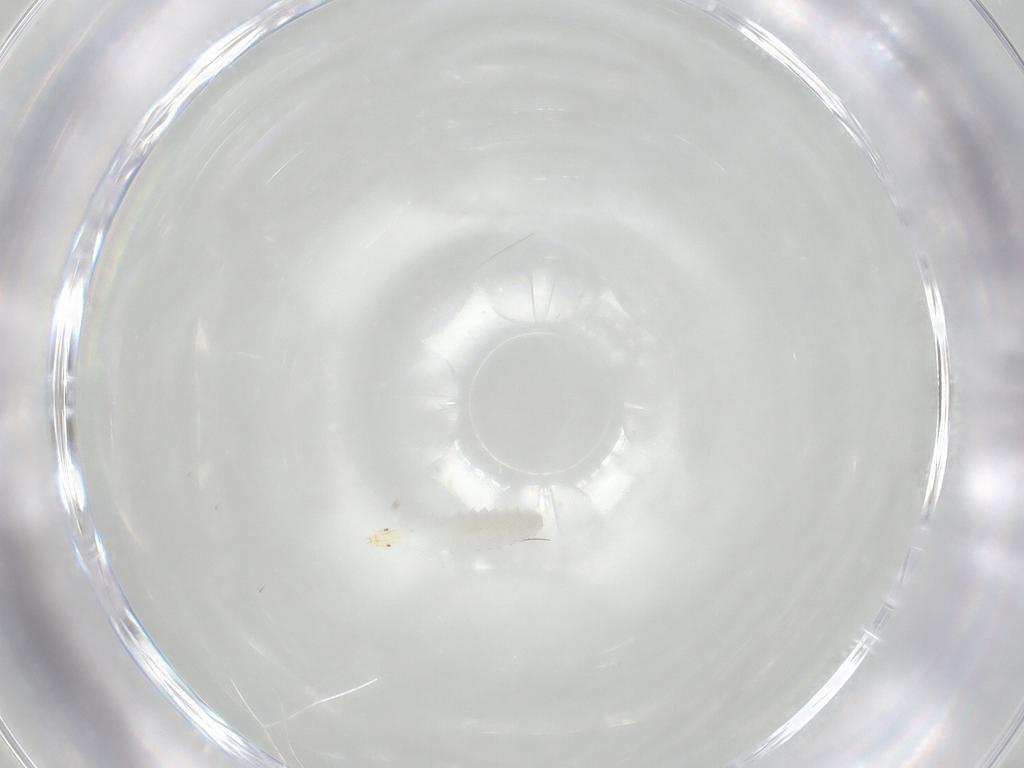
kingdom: Animalia
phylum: Arthropoda
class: Insecta
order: Diptera
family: Stratiomyidae
